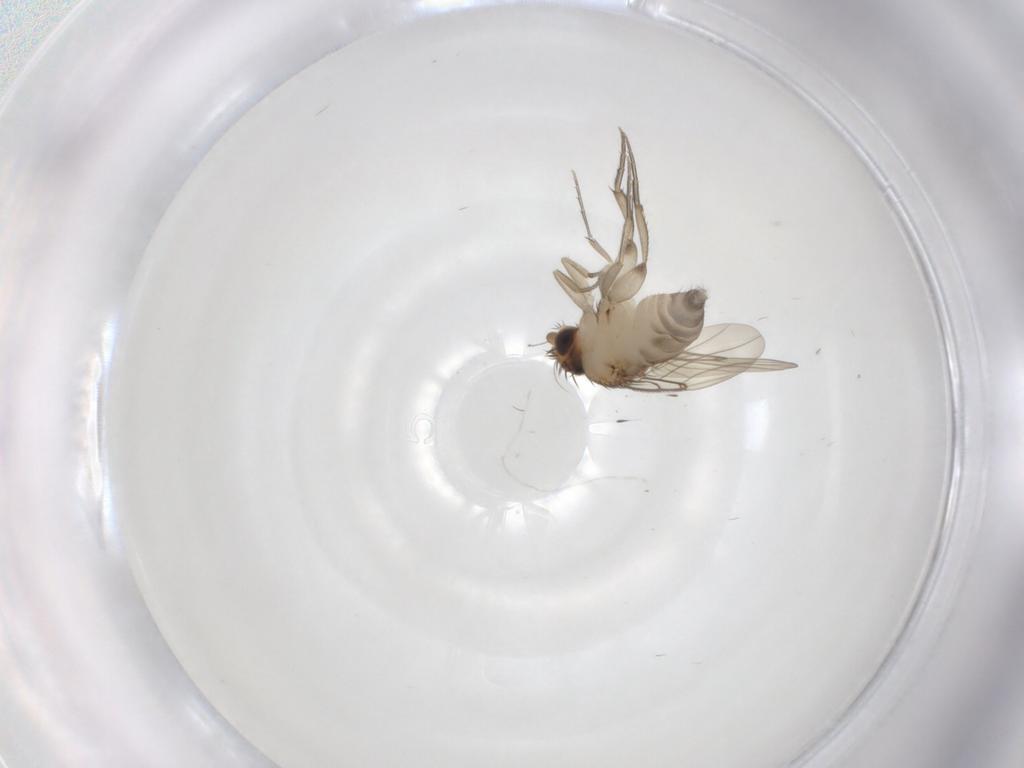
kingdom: Animalia
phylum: Arthropoda
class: Insecta
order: Diptera
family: Phoridae
